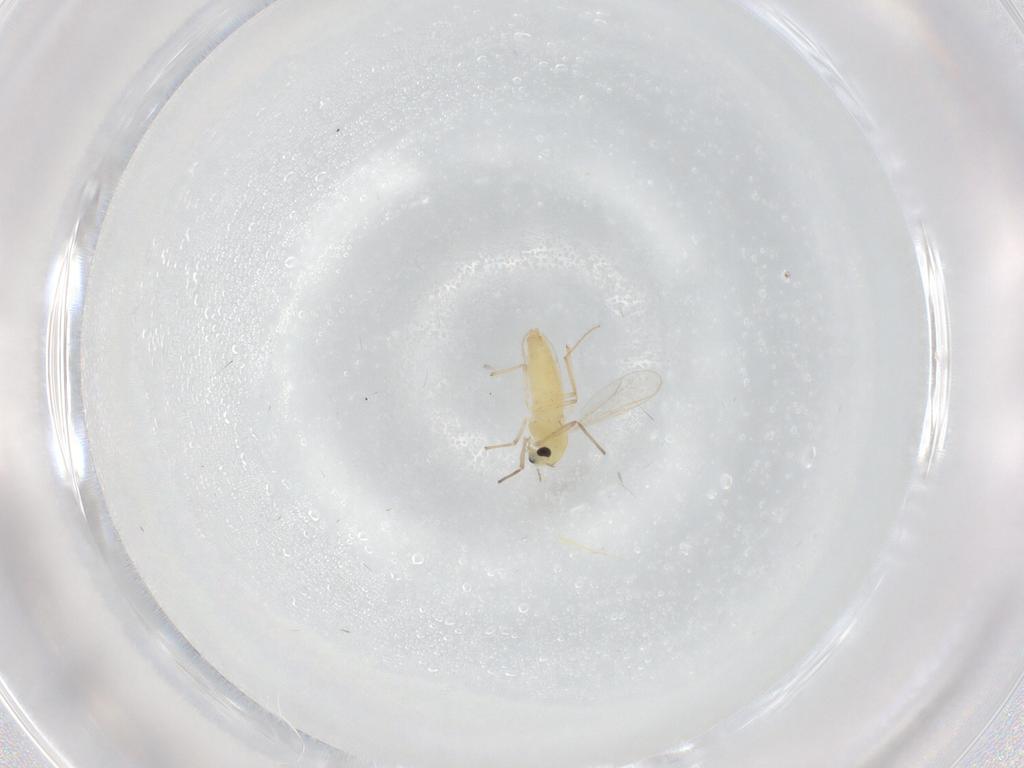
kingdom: Animalia
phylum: Arthropoda
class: Insecta
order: Diptera
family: Chironomidae
